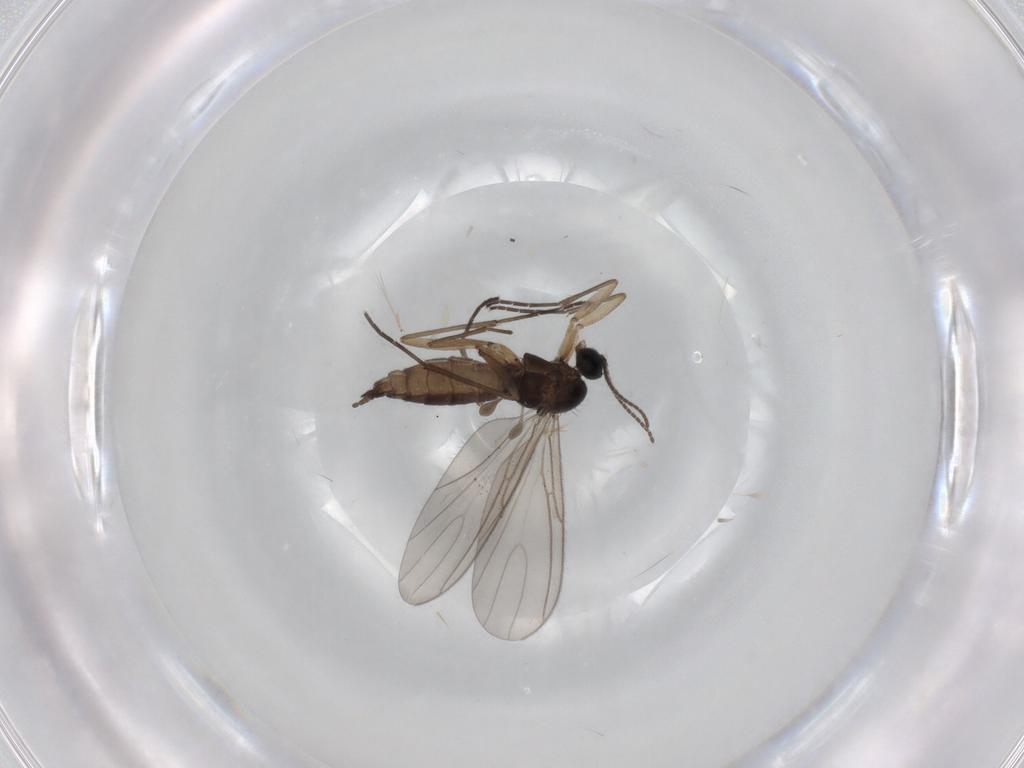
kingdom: Animalia
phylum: Arthropoda
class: Insecta
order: Diptera
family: Sciaridae
